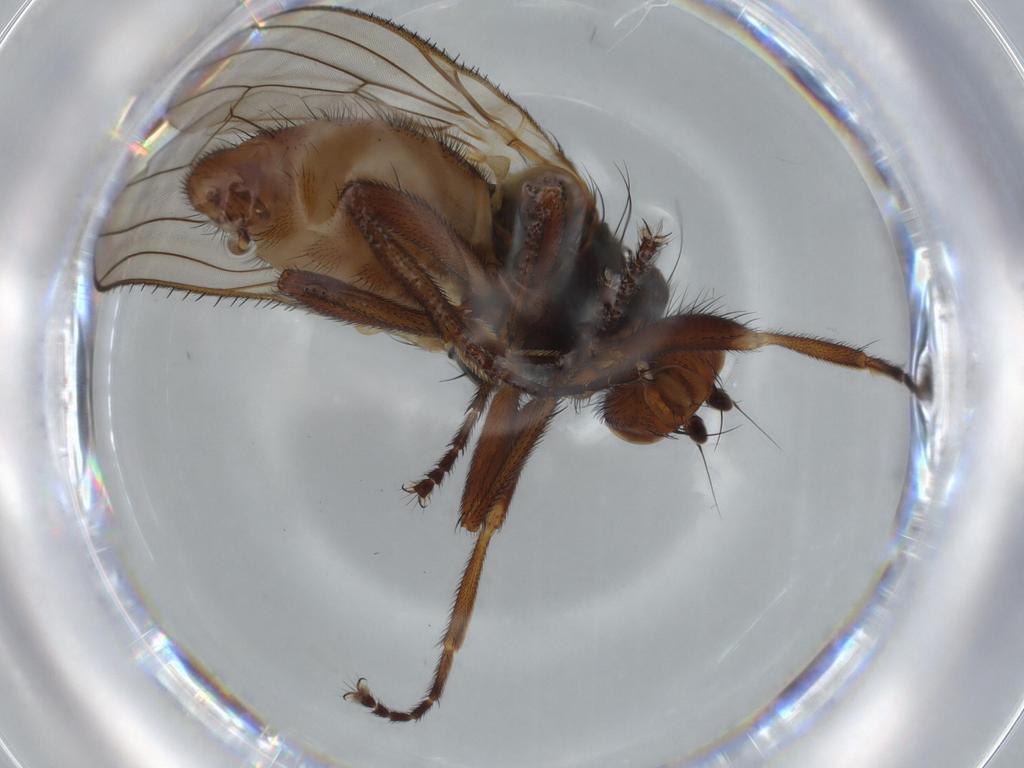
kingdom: Animalia
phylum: Arthropoda
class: Insecta
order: Diptera
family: Heleomyzidae
